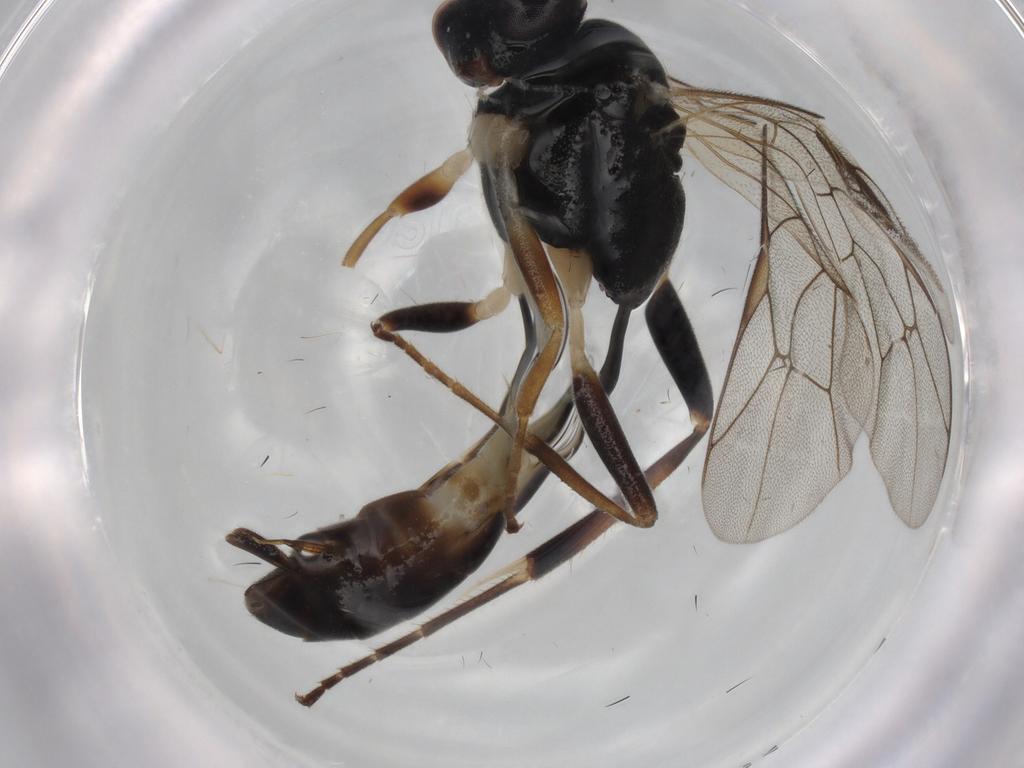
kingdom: Animalia
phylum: Arthropoda
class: Insecta
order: Hymenoptera
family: Ichneumonidae
